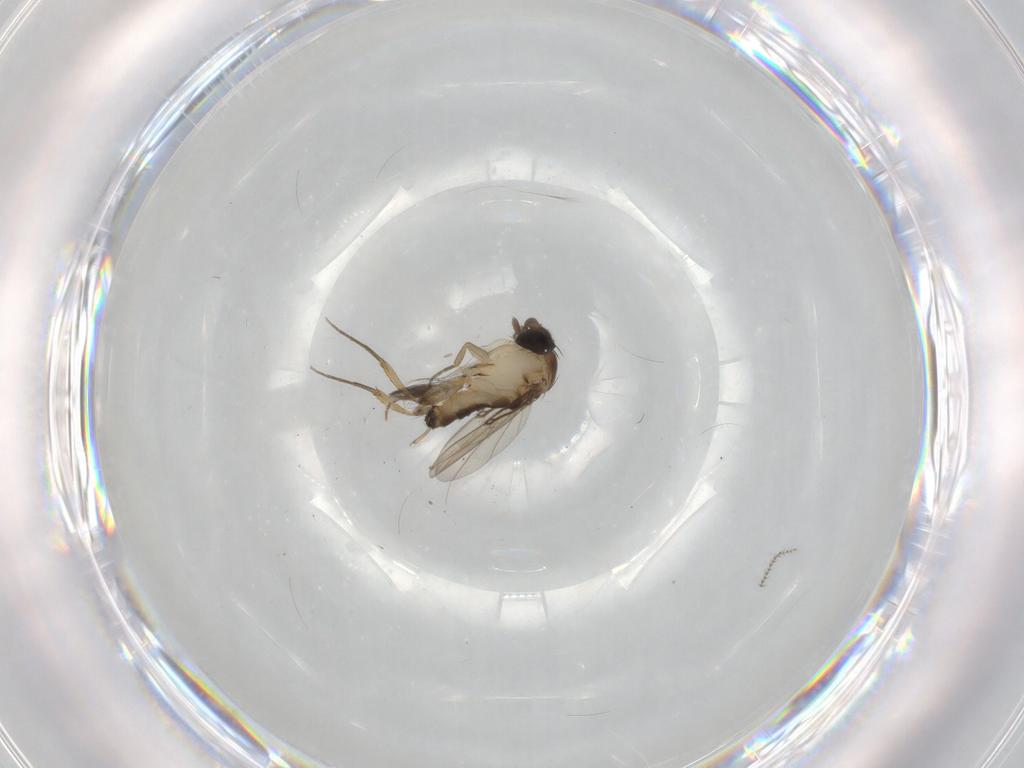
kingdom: Animalia
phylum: Arthropoda
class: Insecta
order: Diptera
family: Phoridae
